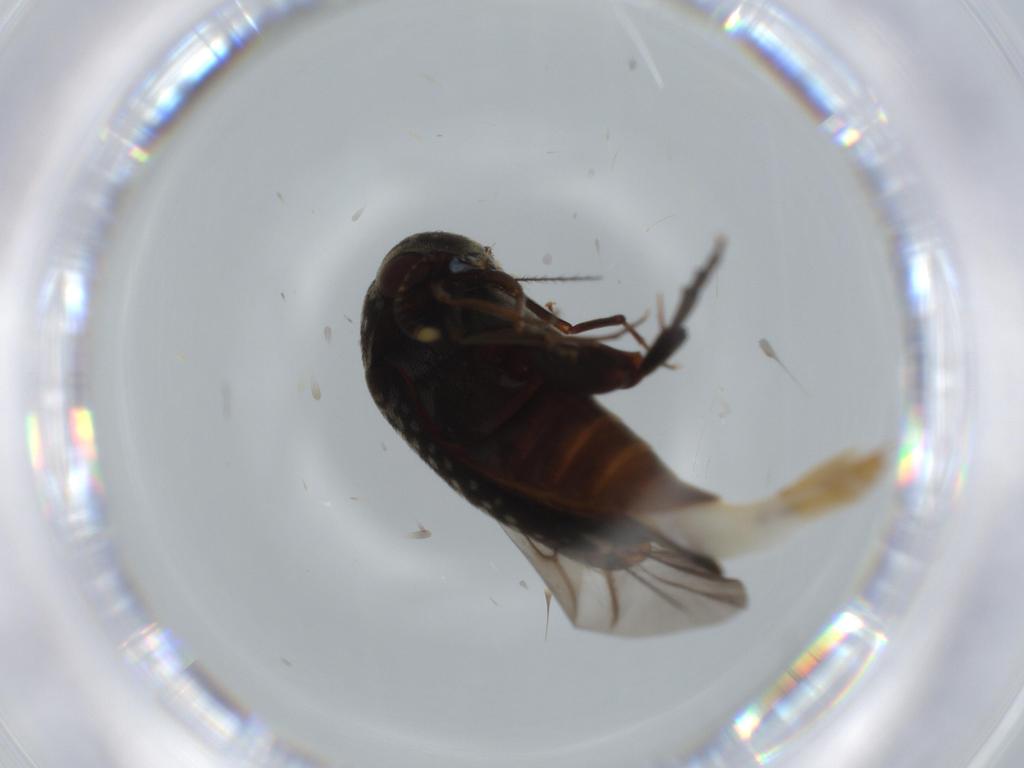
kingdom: Animalia
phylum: Arthropoda
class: Insecta
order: Coleoptera
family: Mordellidae
